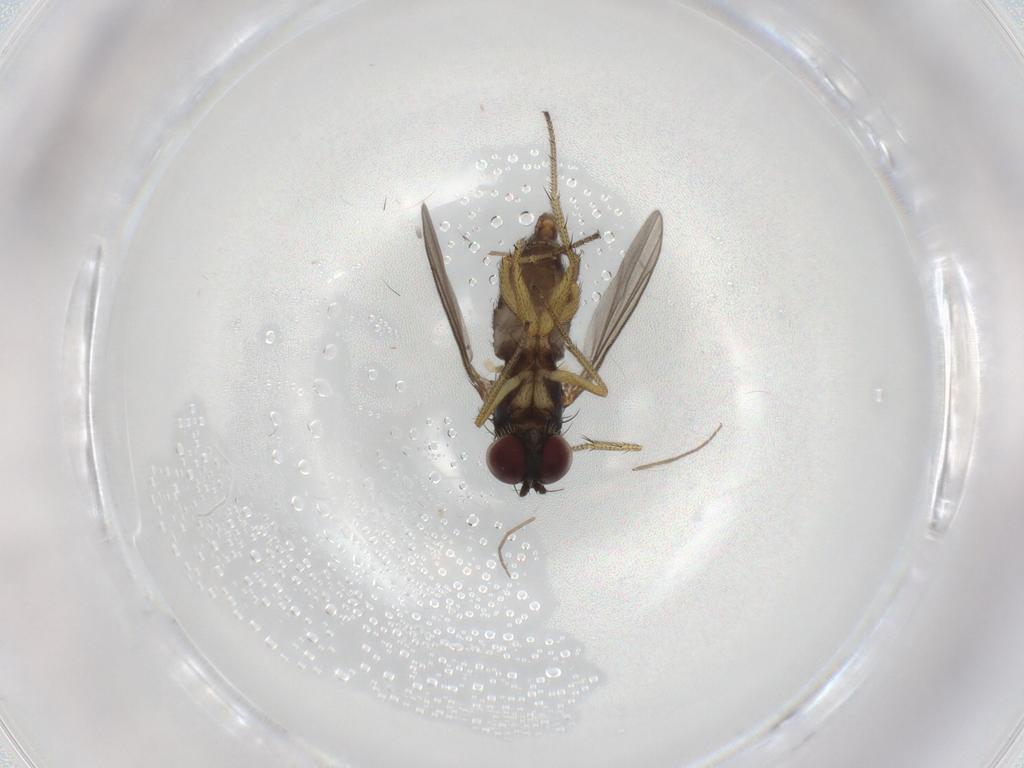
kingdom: Animalia
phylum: Arthropoda
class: Insecta
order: Diptera
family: Dolichopodidae
